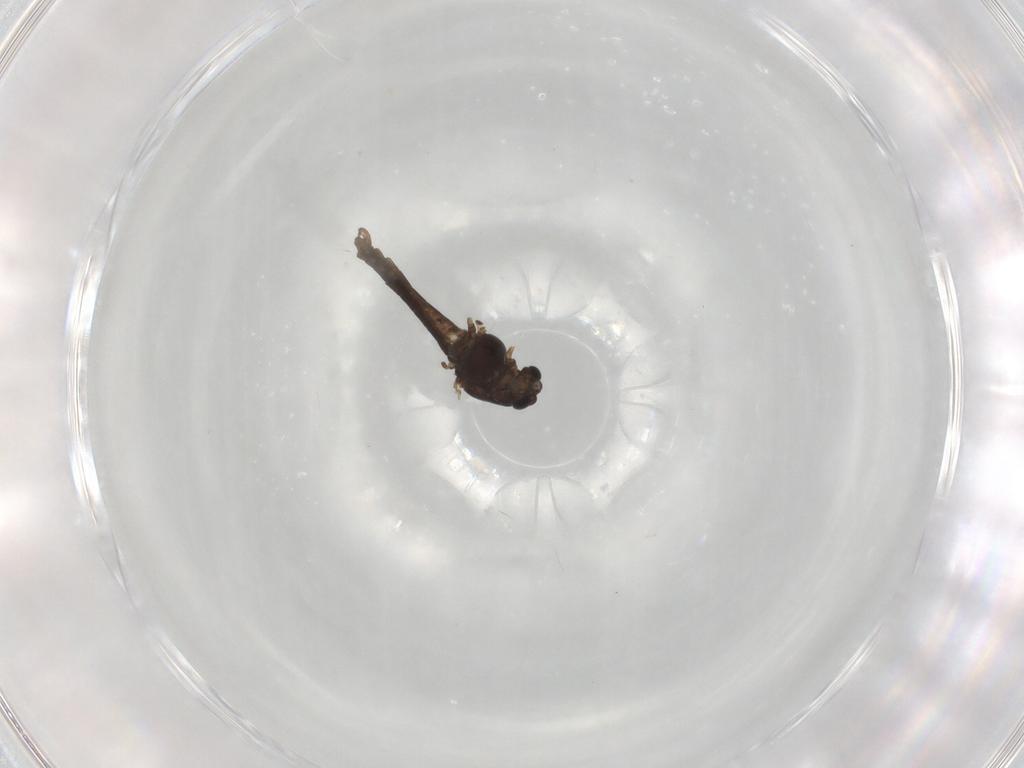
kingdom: Animalia
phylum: Arthropoda
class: Insecta
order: Diptera
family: Chironomidae
